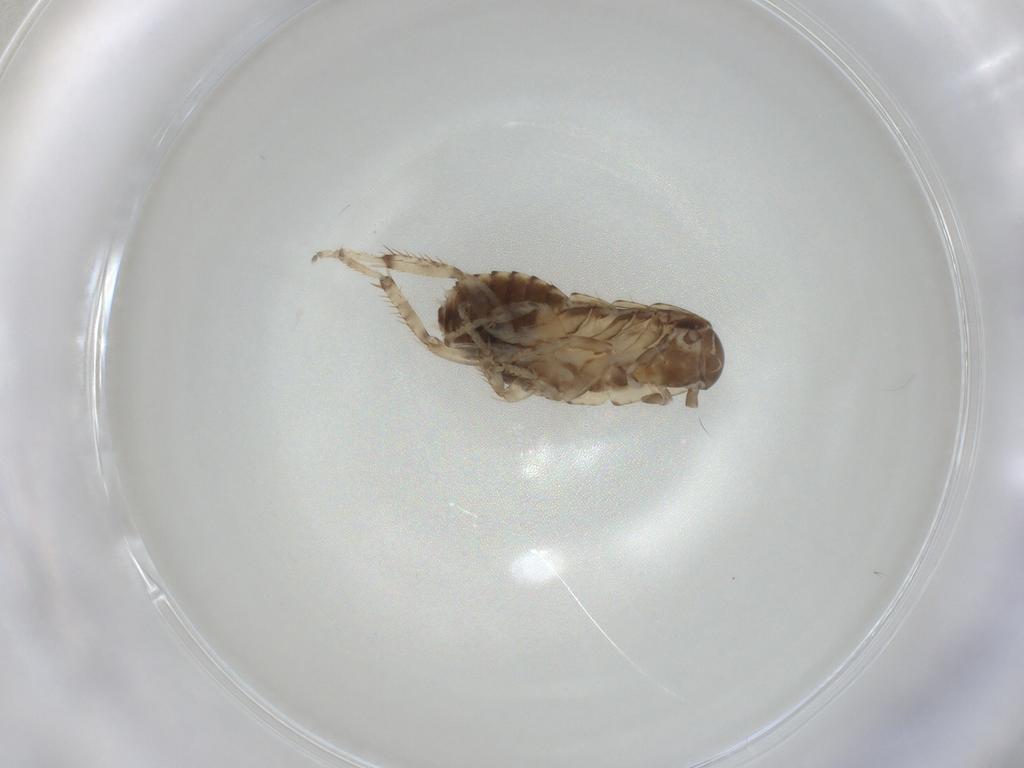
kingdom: Animalia
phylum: Arthropoda
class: Insecta
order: Blattodea
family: Blaberidae
